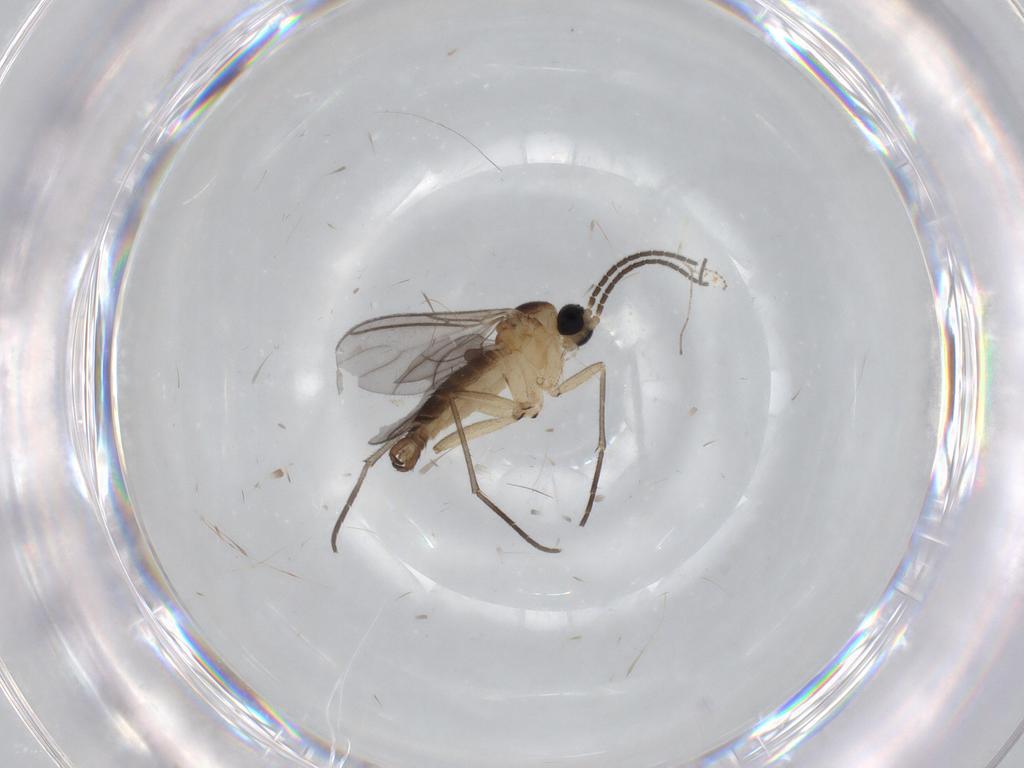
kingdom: Animalia
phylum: Arthropoda
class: Insecta
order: Diptera
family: Sciaridae
